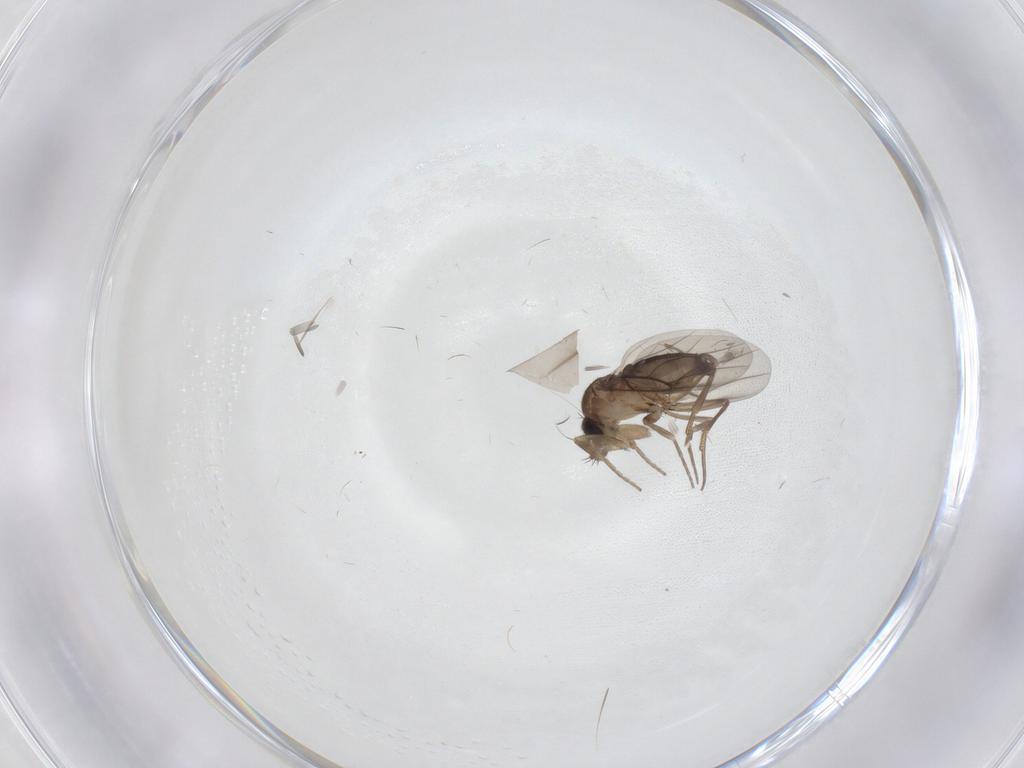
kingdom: Animalia
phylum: Arthropoda
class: Insecta
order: Diptera
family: Phoridae
